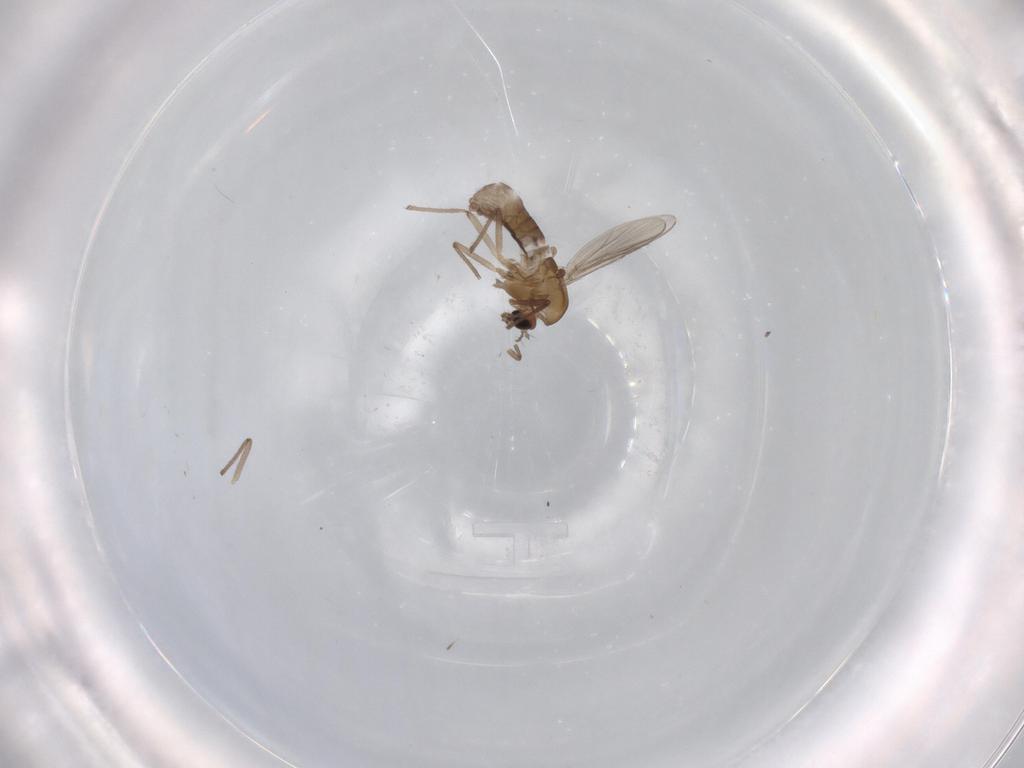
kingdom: Animalia
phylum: Arthropoda
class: Insecta
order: Diptera
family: Chironomidae
